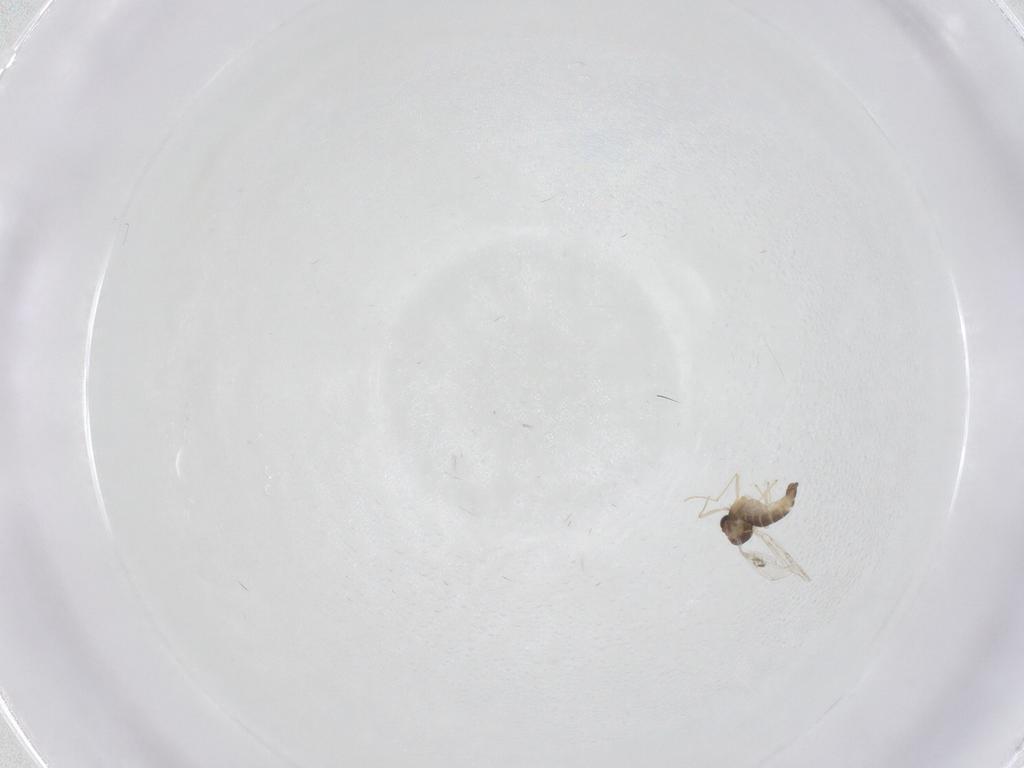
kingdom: Animalia
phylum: Arthropoda
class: Insecta
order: Diptera
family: Chironomidae
